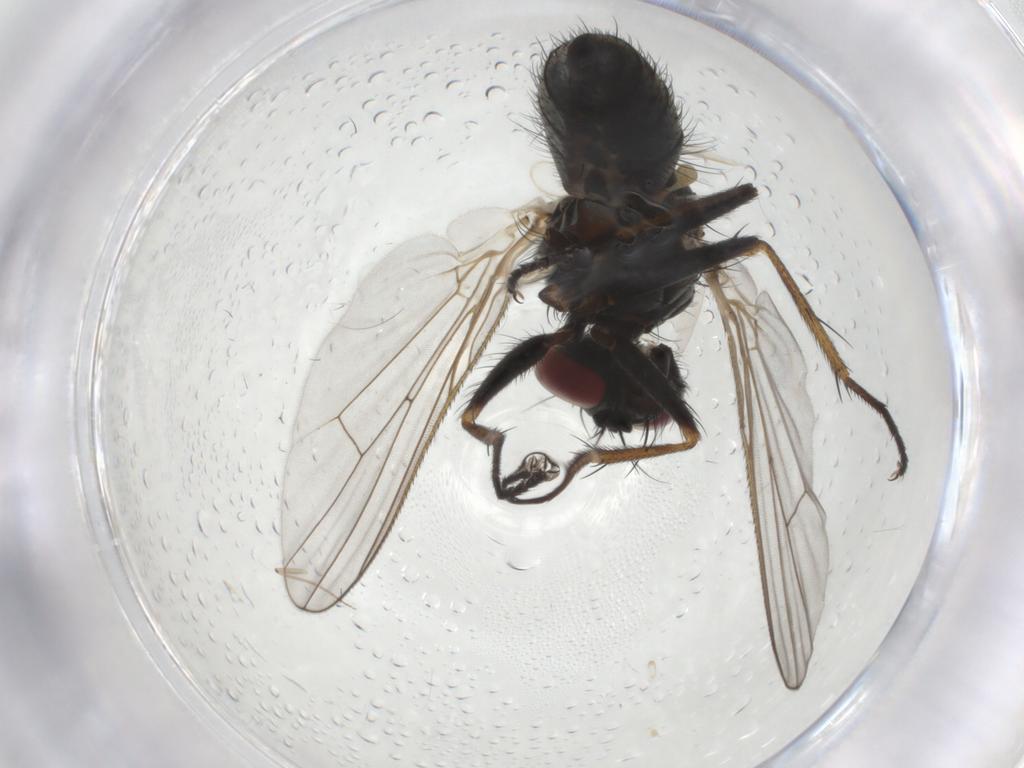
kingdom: Animalia
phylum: Arthropoda
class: Insecta
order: Diptera
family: Muscidae
